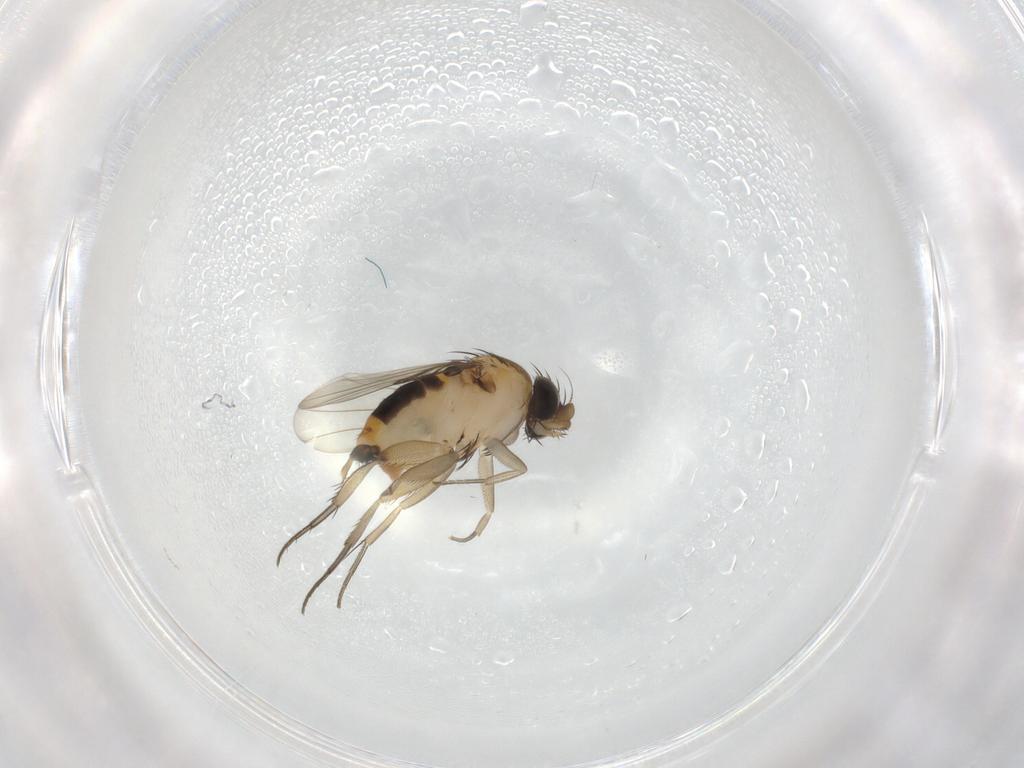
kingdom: Animalia
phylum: Arthropoda
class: Insecta
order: Diptera
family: Phoridae
